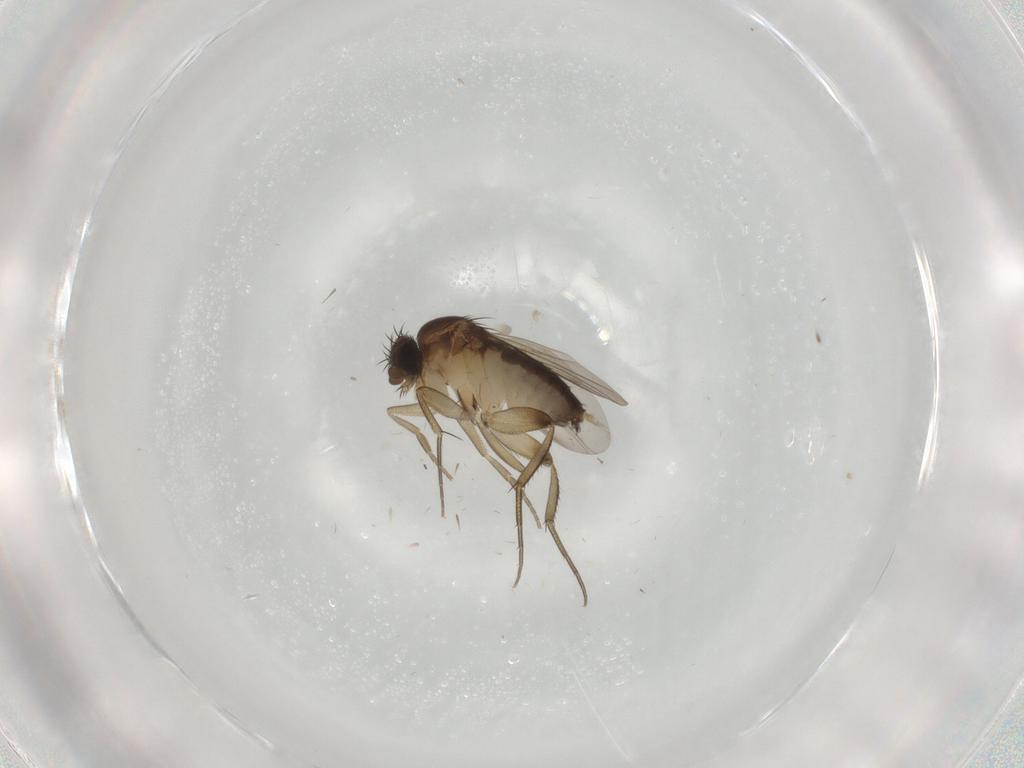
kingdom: Animalia
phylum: Arthropoda
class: Insecta
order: Diptera
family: Phoridae
